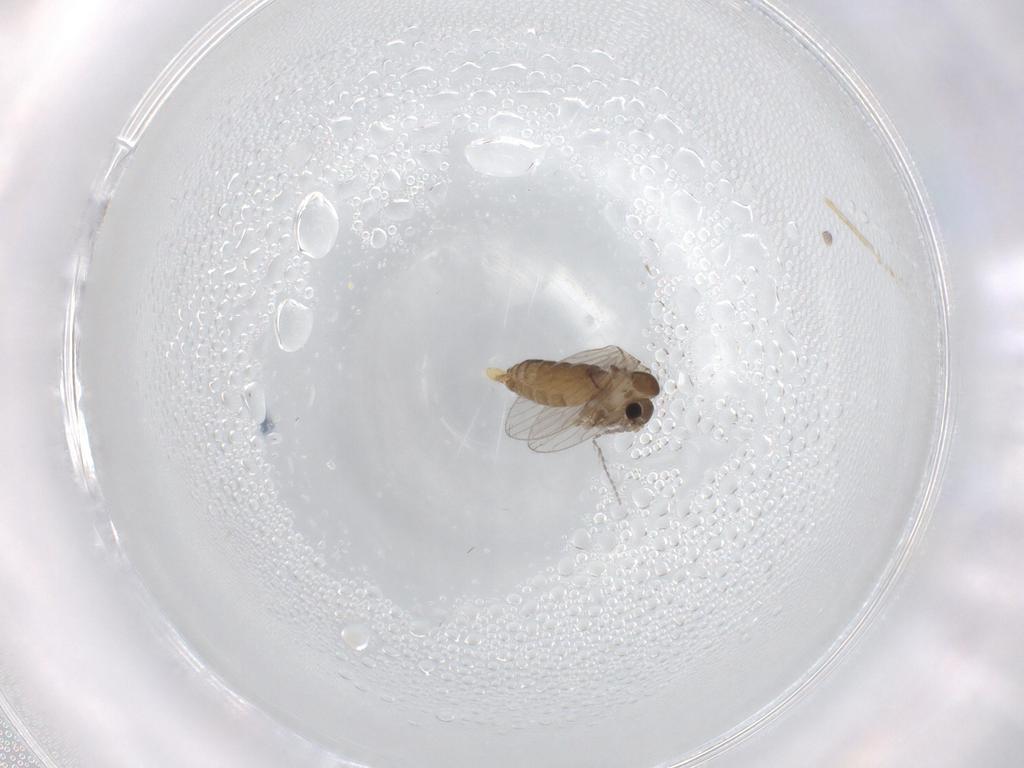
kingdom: Animalia
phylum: Arthropoda
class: Insecta
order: Diptera
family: Psychodidae
